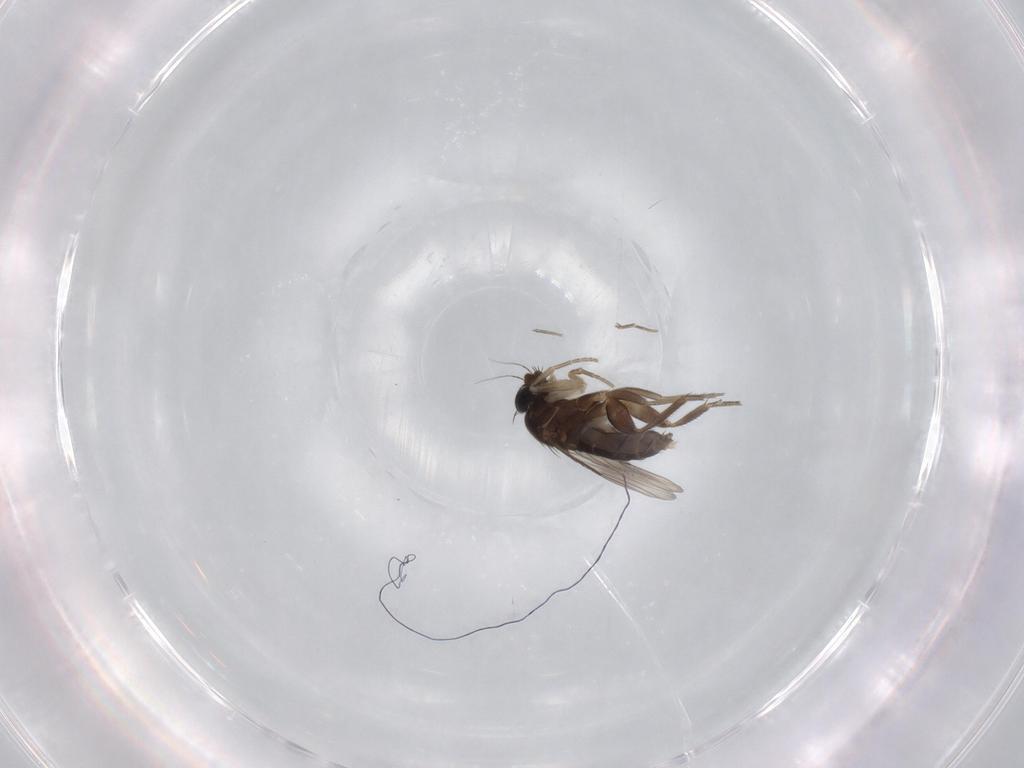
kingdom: Animalia
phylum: Arthropoda
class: Insecta
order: Diptera
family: Phoridae
